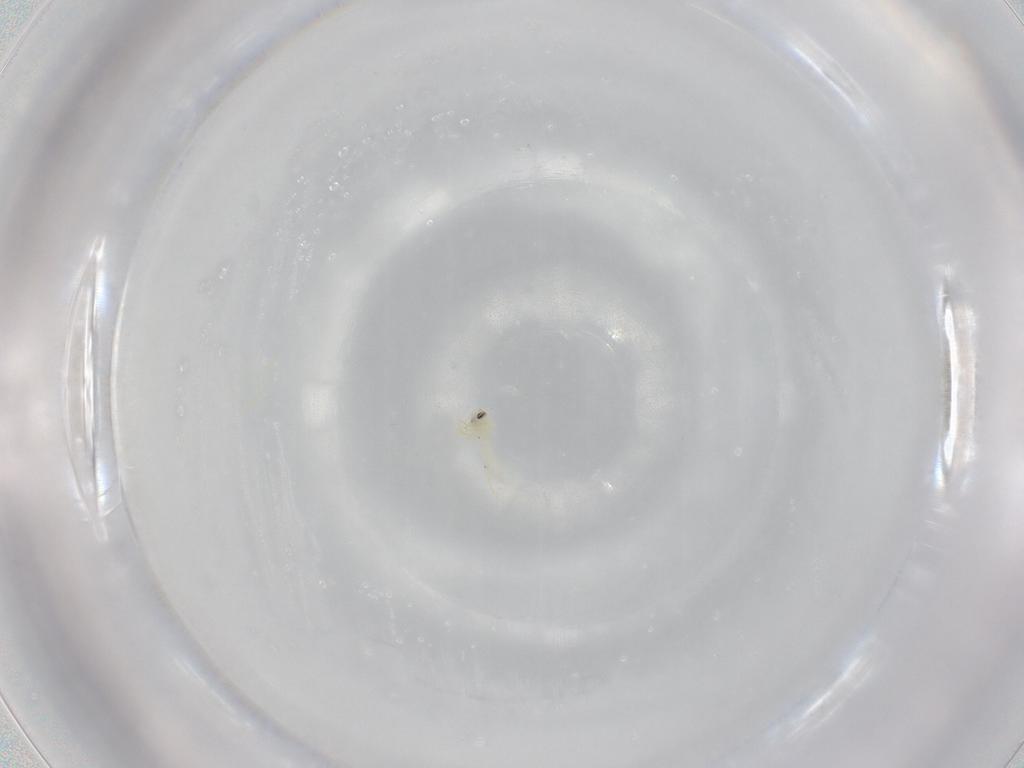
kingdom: Animalia
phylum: Arthropoda
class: Insecta
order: Hemiptera
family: Aleyrodidae
